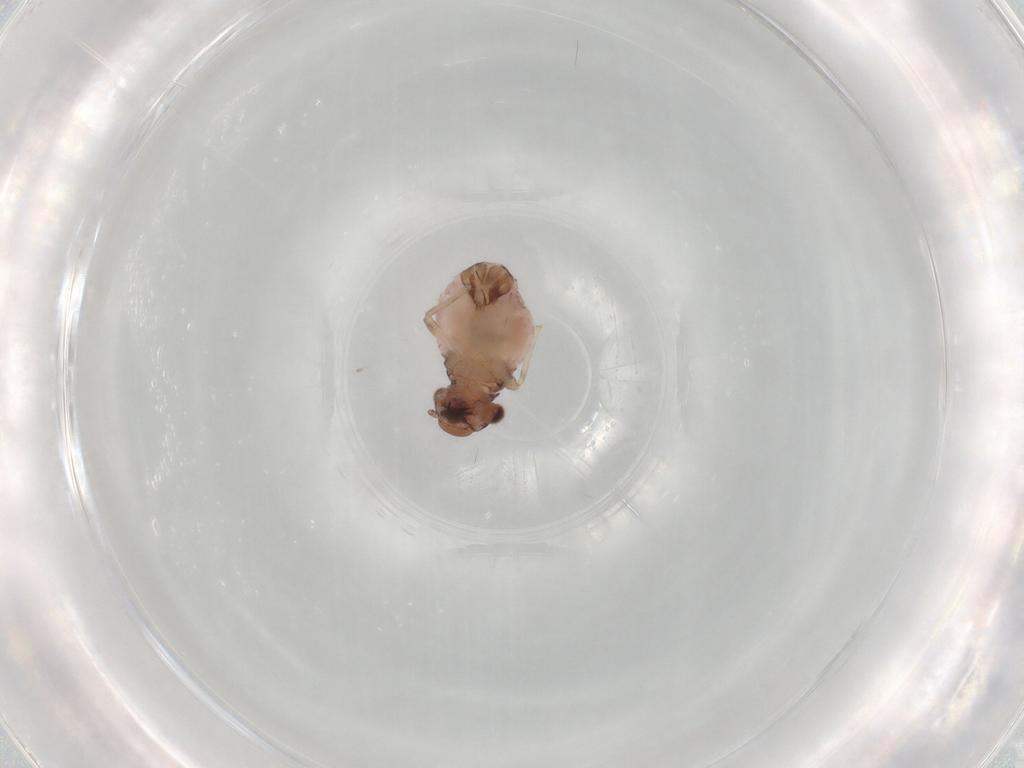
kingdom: Animalia
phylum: Arthropoda
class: Insecta
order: Psocodea
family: Trogiidae
